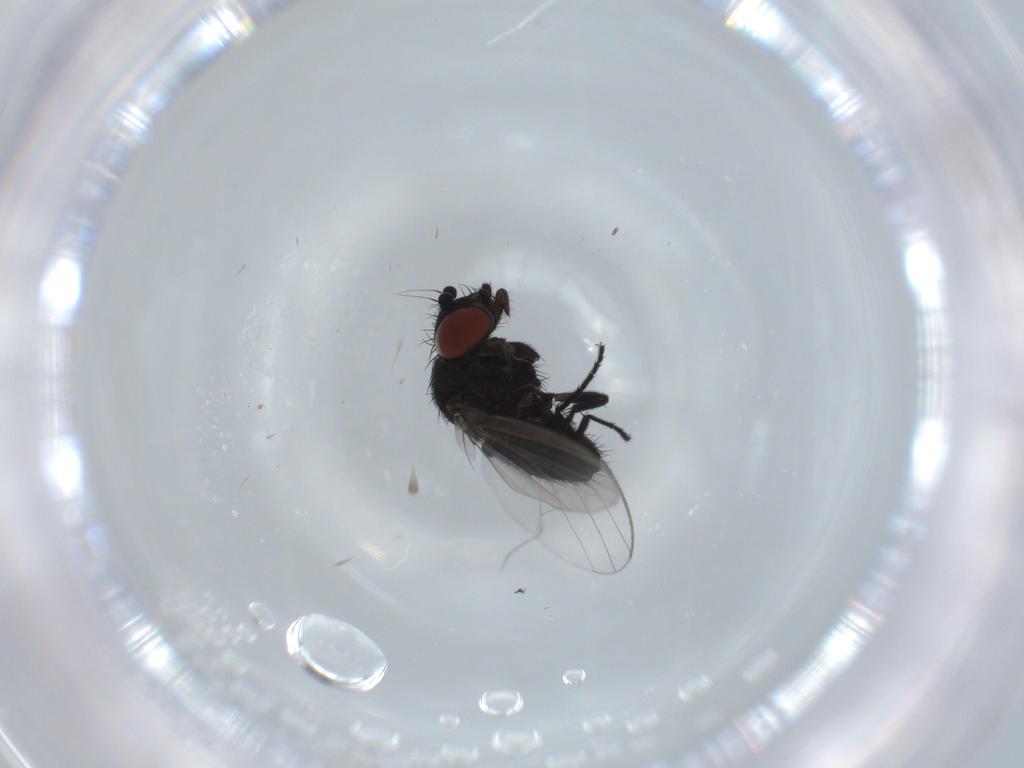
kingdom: Animalia
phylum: Arthropoda
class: Insecta
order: Diptera
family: Milichiidae
